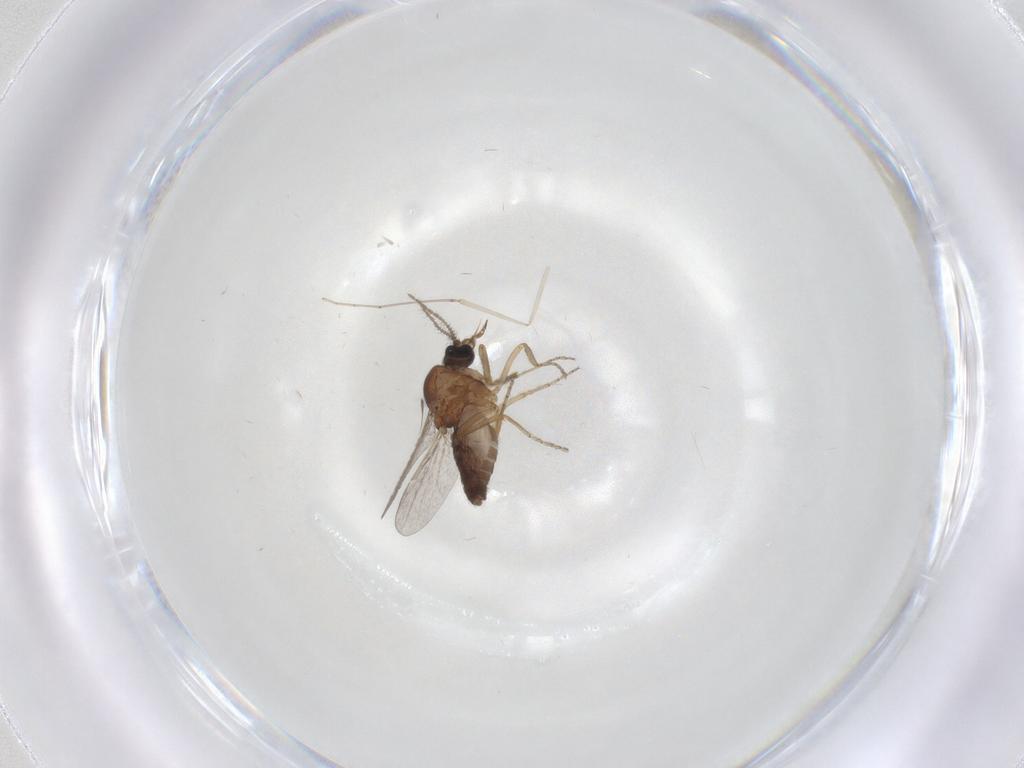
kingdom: Animalia
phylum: Arthropoda
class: Insecta
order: Diptera
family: Ceratopogonidae
